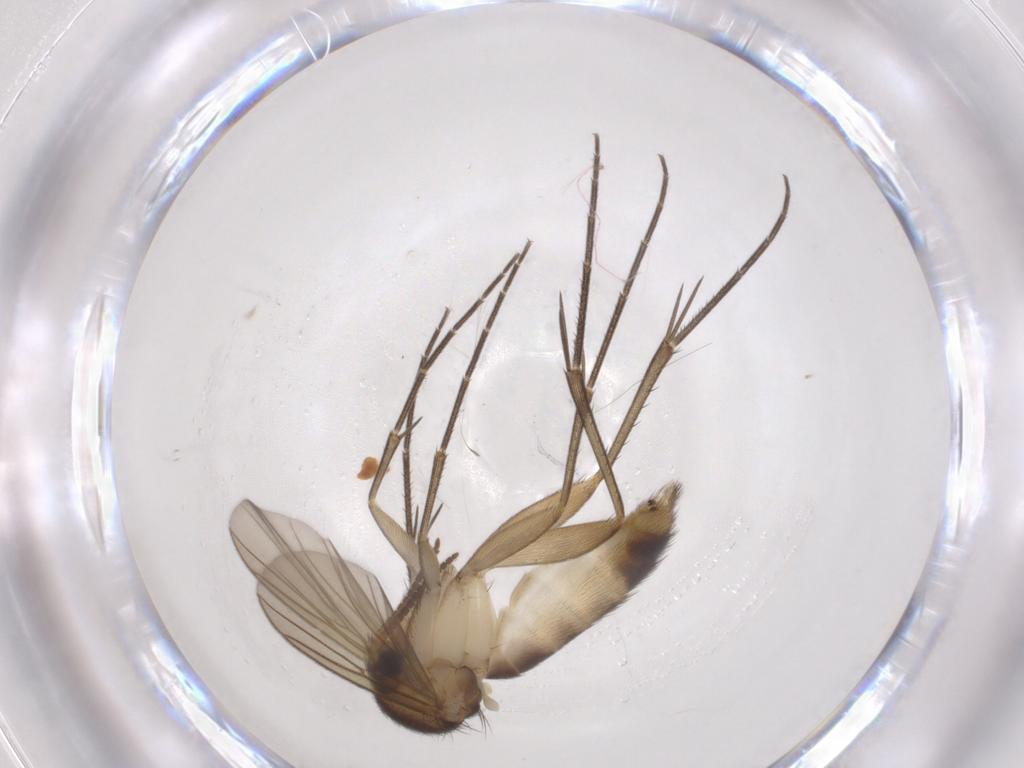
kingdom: Animalia
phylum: Arthropoda
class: Insecta
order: Diptera
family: Mycetophilidae
